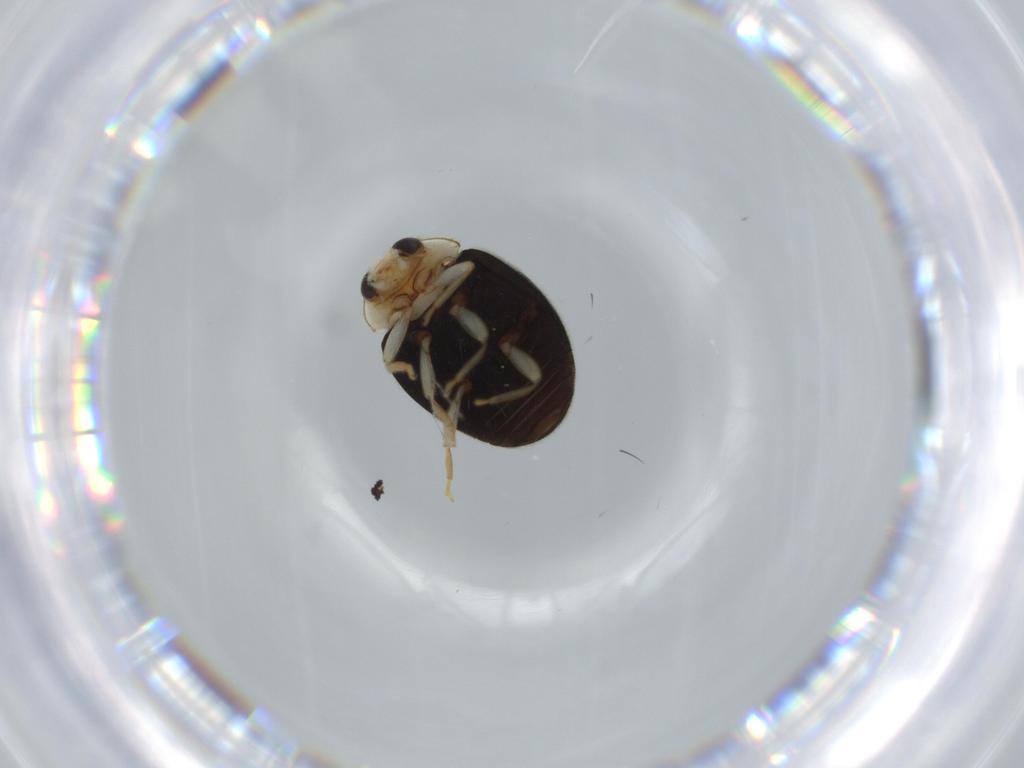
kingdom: Animalia
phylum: Arthropoda
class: Insecta
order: Coleoptera
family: Coccinellidae
